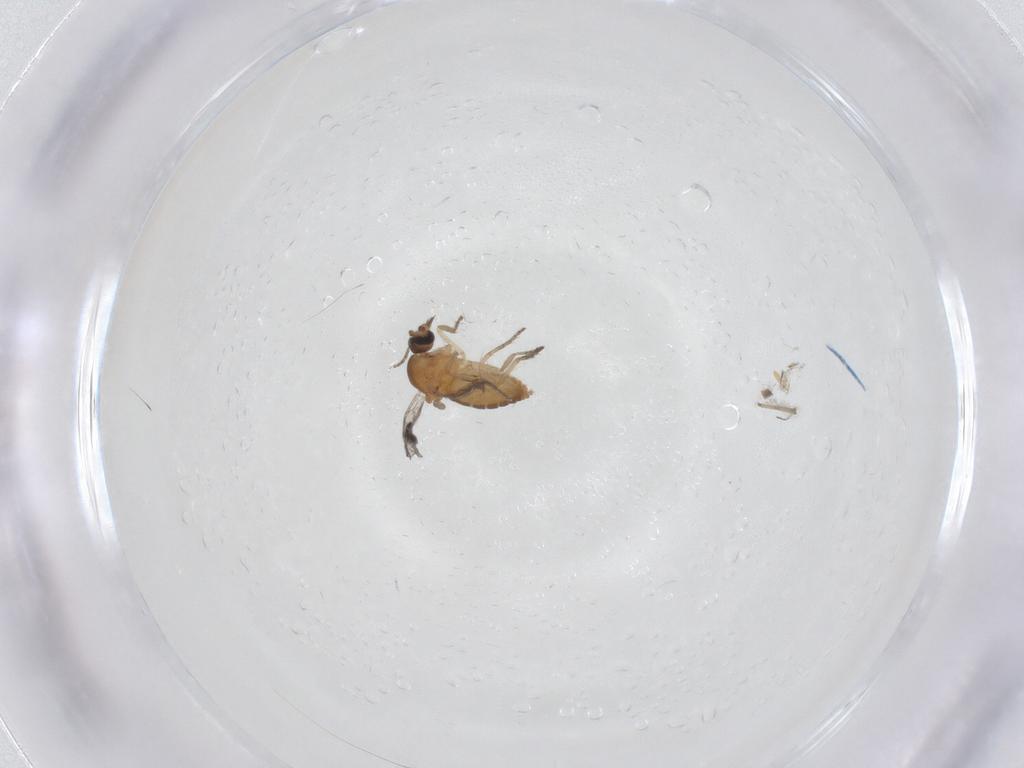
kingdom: Animalia
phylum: Arthropoda
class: Insecta
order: Diptera
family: Ceratopogonidae
